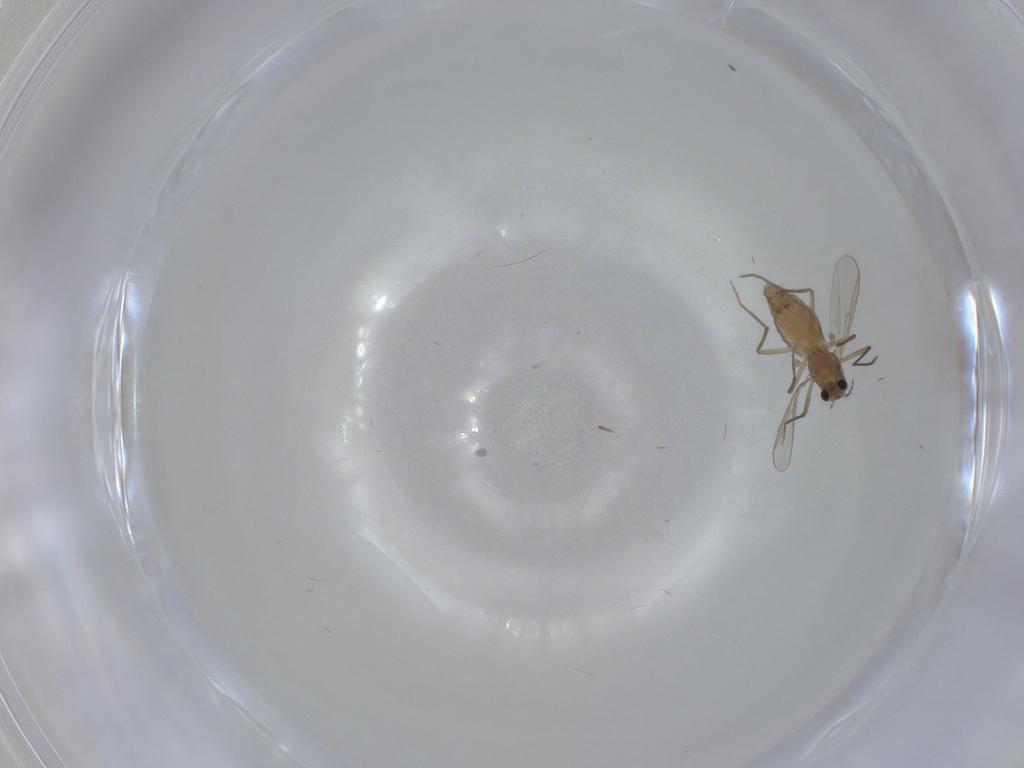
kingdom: Animalia
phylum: Arthropoda
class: Insecta
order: Diptera
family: Chironomidae
